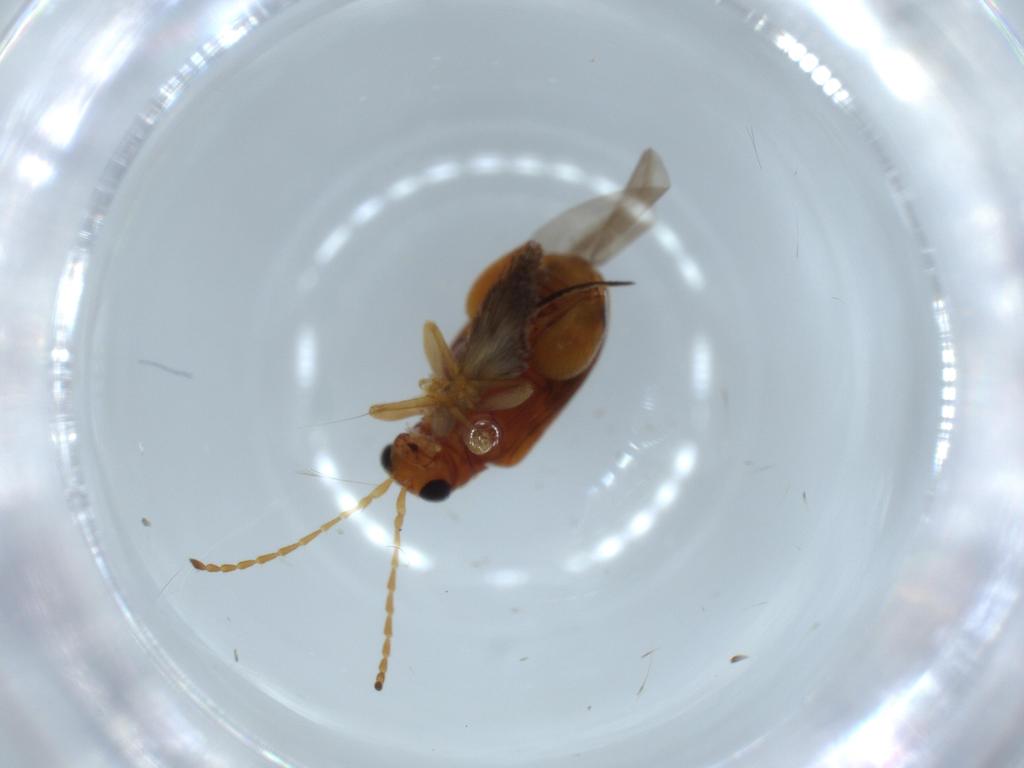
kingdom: Animalia
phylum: Arthropoda
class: Insecta
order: Coleoptera
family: Chrysomelidae
